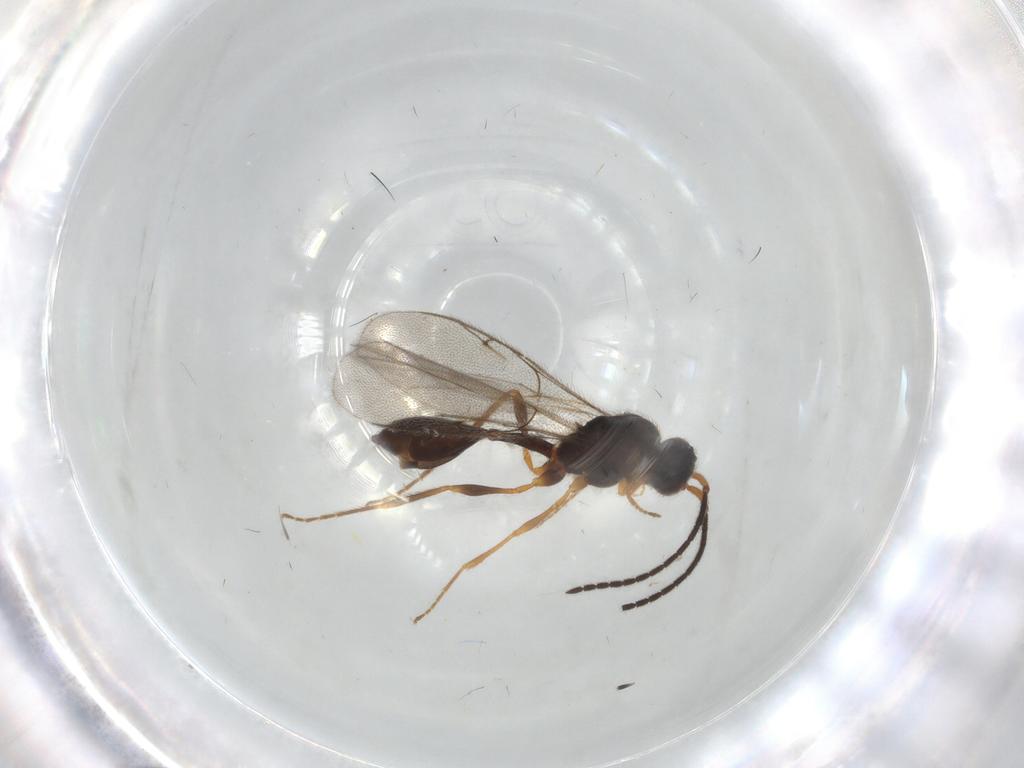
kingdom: Animalia
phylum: Arthropoda
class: Insecta
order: Hymenoptera
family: Diapriidae
